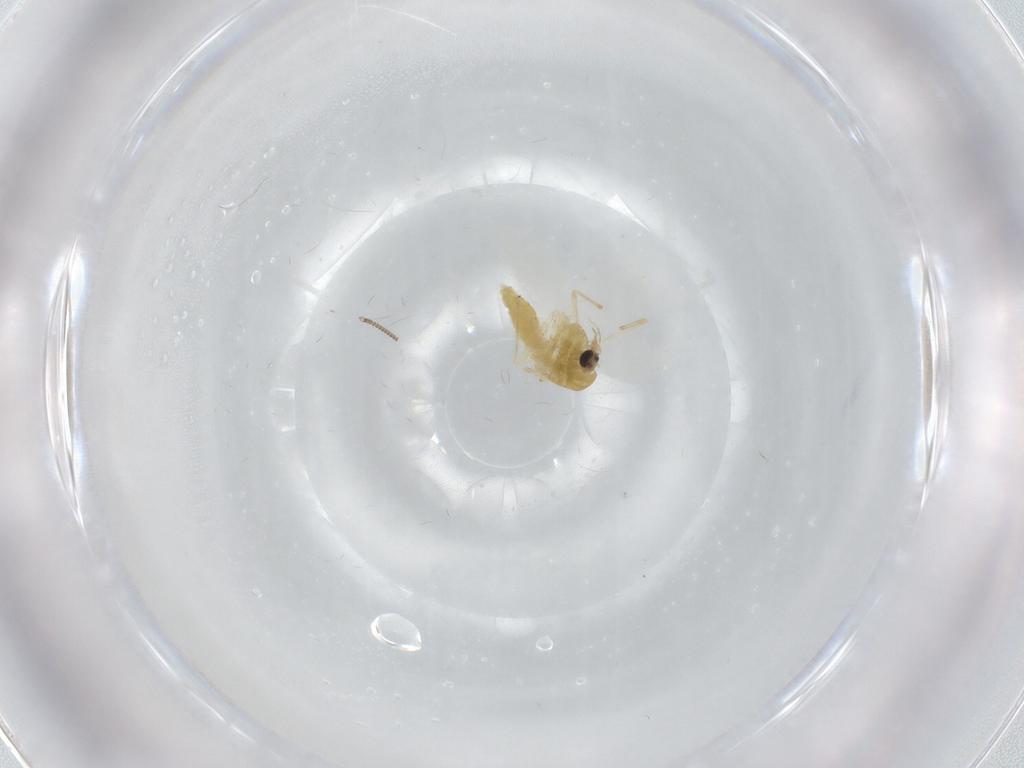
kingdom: Animalia
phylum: Arthropoda
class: Insecta
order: Diptera
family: Chironomidae
